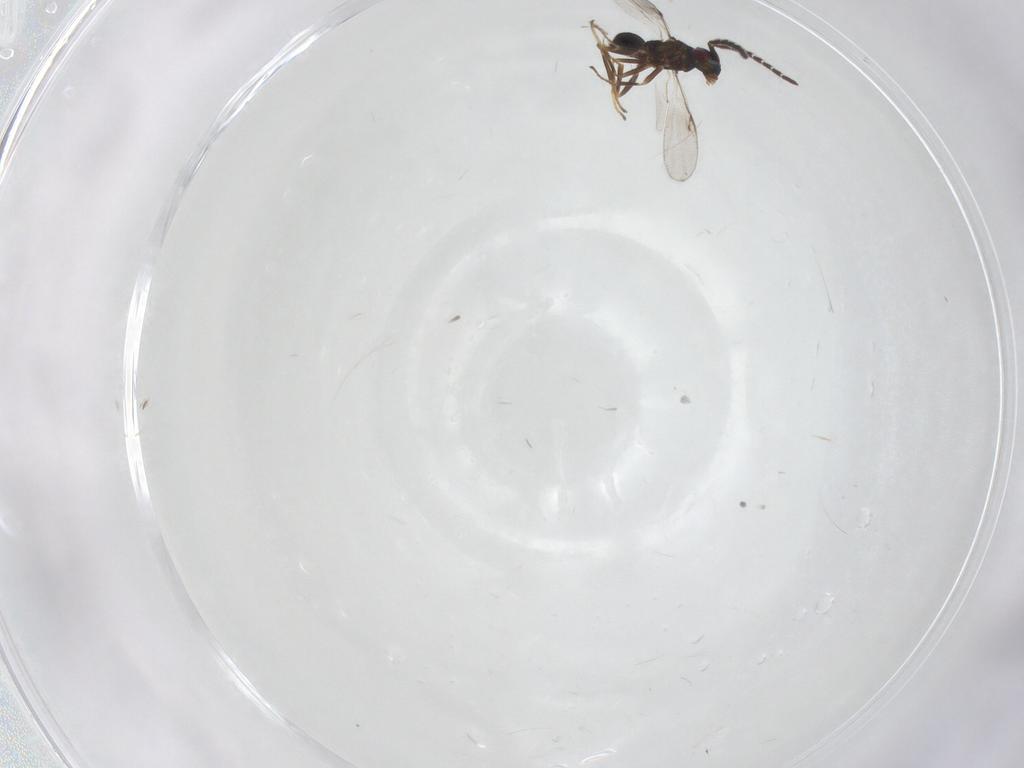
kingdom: Animalia
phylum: Arthropoda
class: Insecta
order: Hymenoptera
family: Encyrtidae
